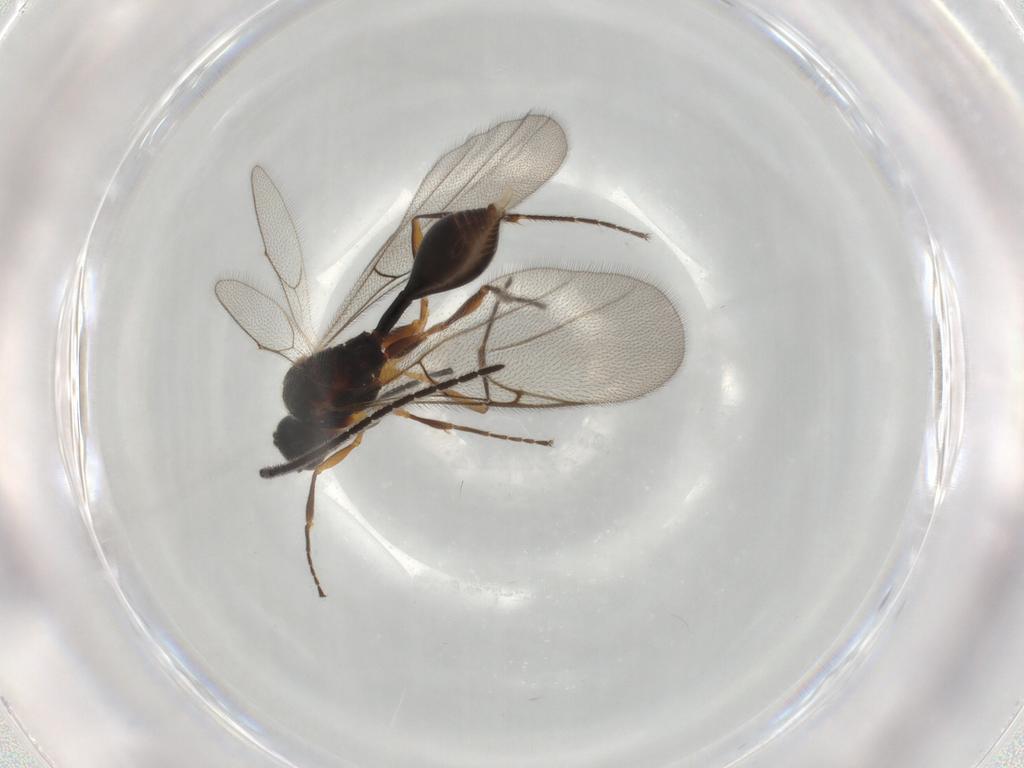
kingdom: Animalia
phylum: Arthropoda
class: Insecta
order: Hymenoptera
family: Diapriidae
